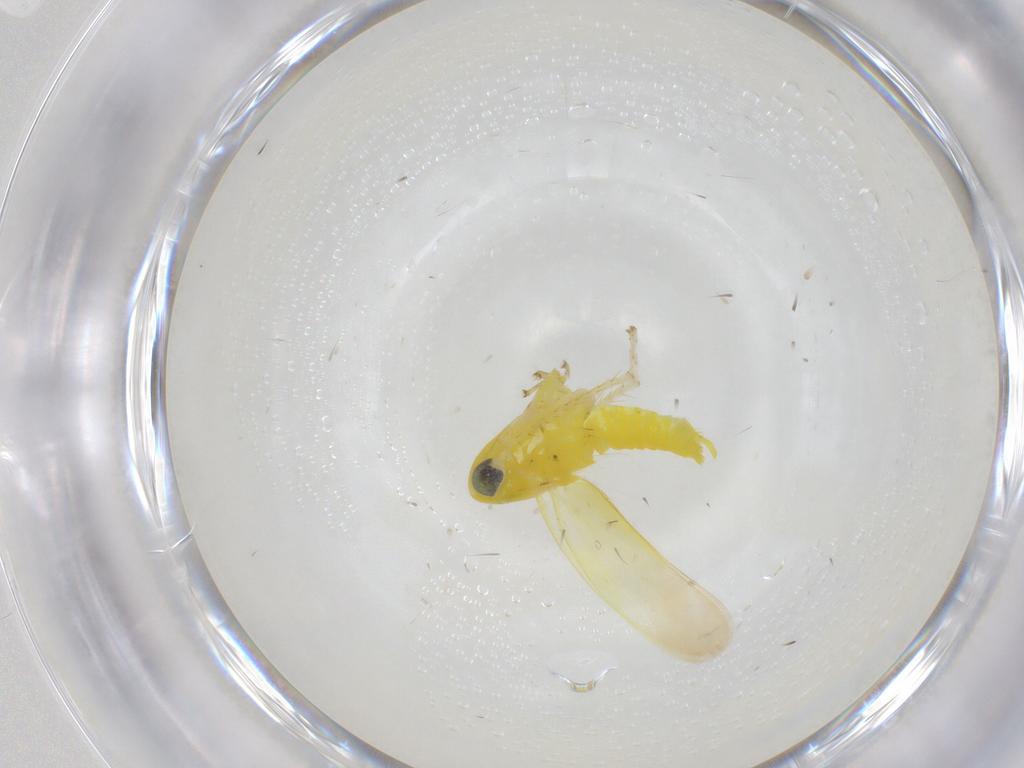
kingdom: Animalia
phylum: Arthropoda
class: Insecta
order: Hemiptera
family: Cicadellidae
